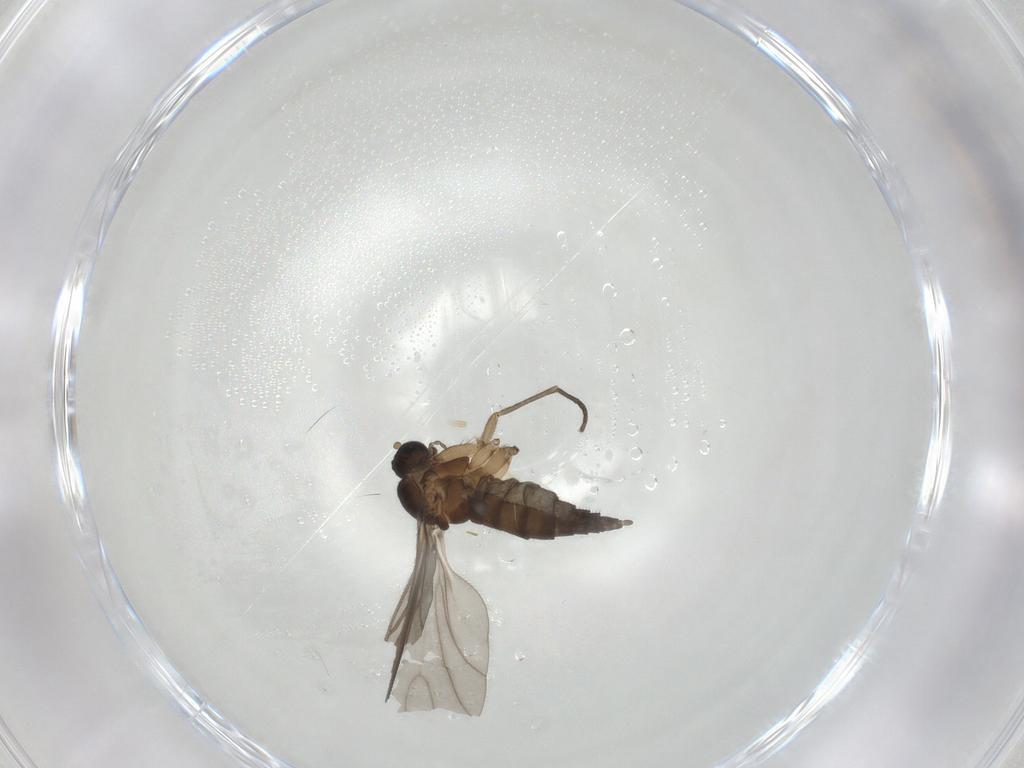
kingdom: Animalia
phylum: Arthropoda
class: Insecta
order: Diptera
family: Sciaridae
